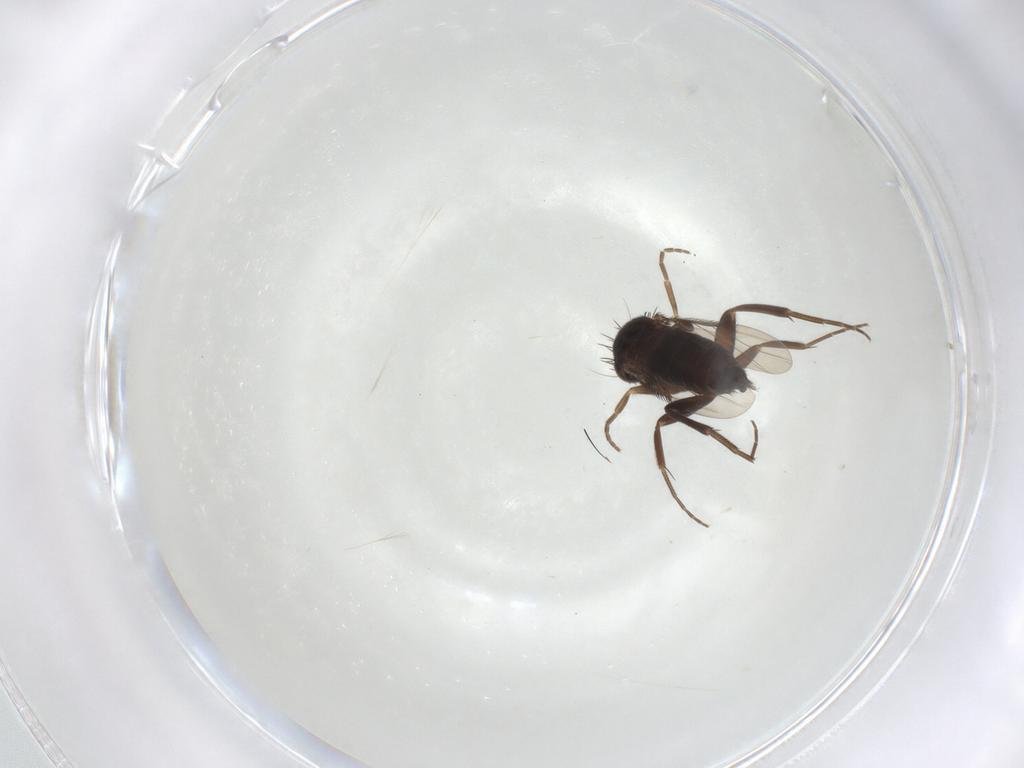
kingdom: Animalia
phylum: Arthropoda
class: Insecta
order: Diptera
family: Phoridae
